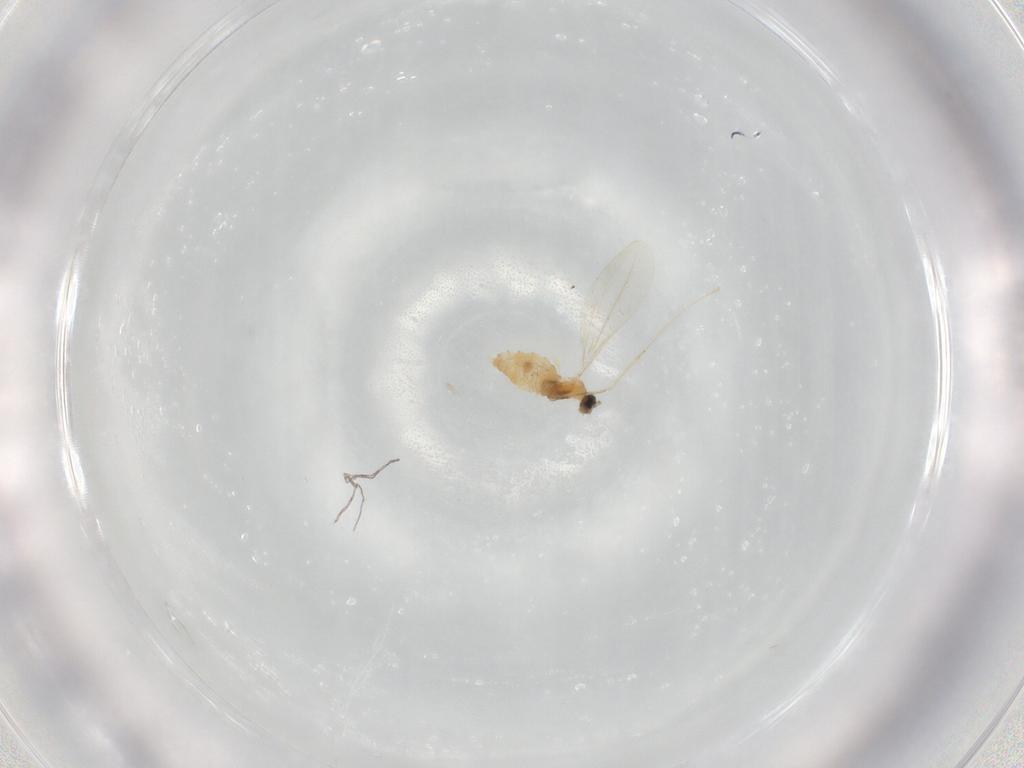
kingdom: Animalia
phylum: Arthropoda
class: Insecta
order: Diptera
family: Cecidomyiidae
